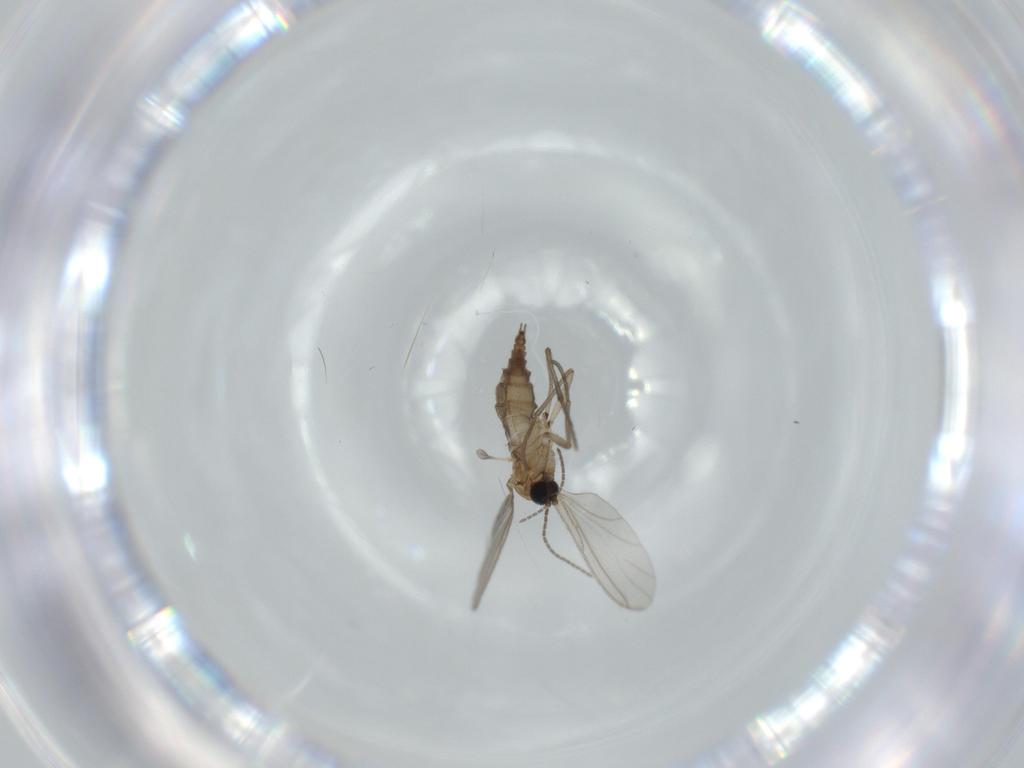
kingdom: Animalia
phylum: Arthropoda
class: Insecta
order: Diptera
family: Sciaridae
